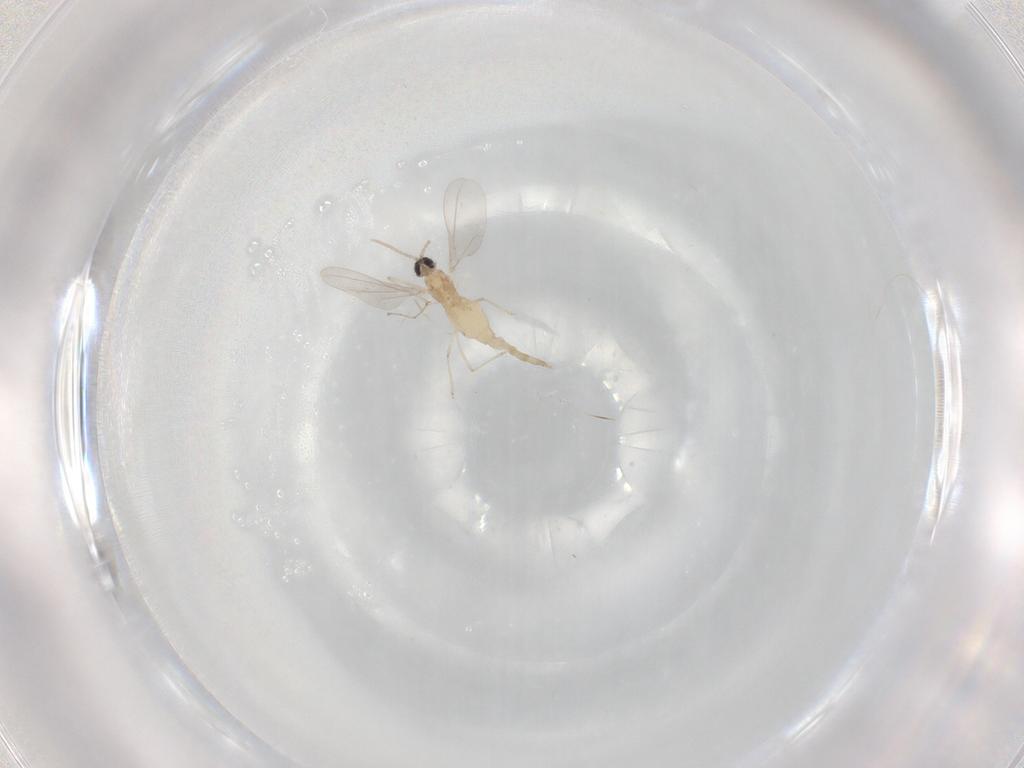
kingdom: Animalia
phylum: Arthropoda
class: Insecta
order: Diptera
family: Cecidomyiidae
